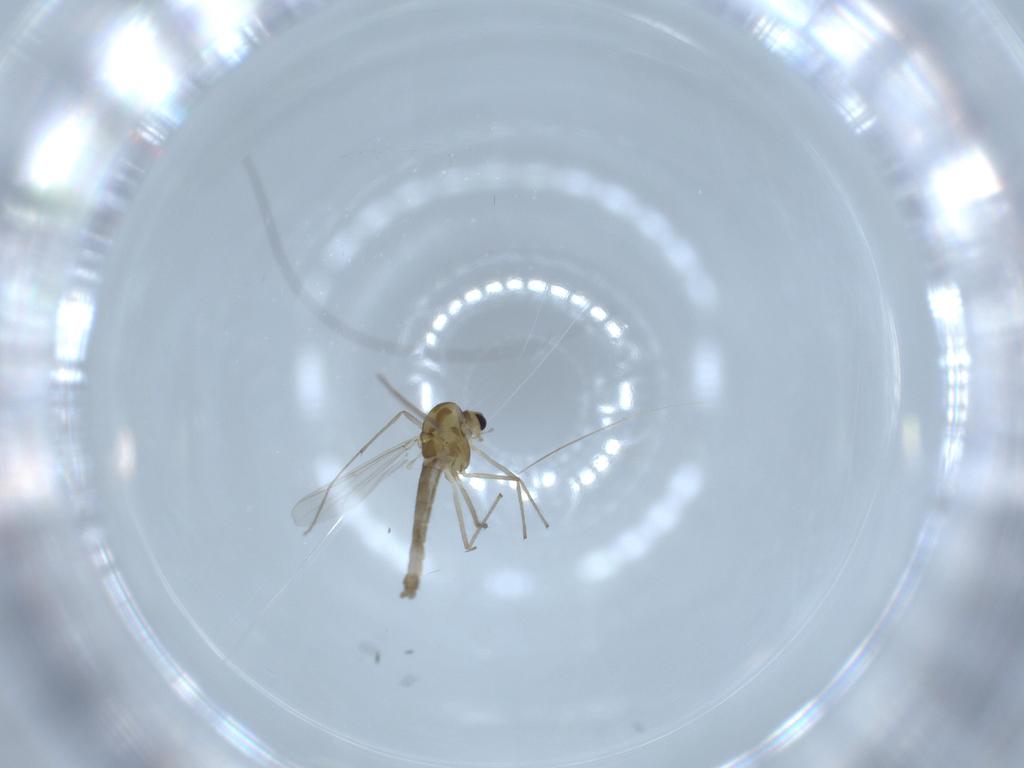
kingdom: Animalia
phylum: Arthropoda
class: Insecta
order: Diptera
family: Chironomidae
